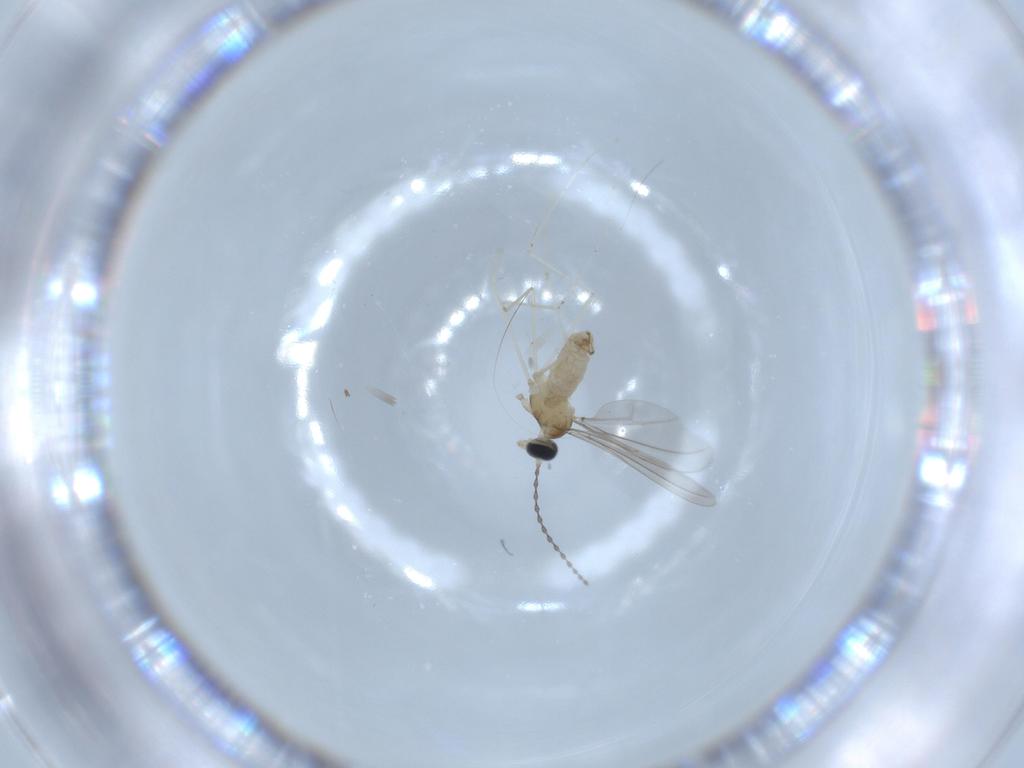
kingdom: Animalia
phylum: Arthropoda
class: Insecta
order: Diptera
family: Cecidomyiidae
